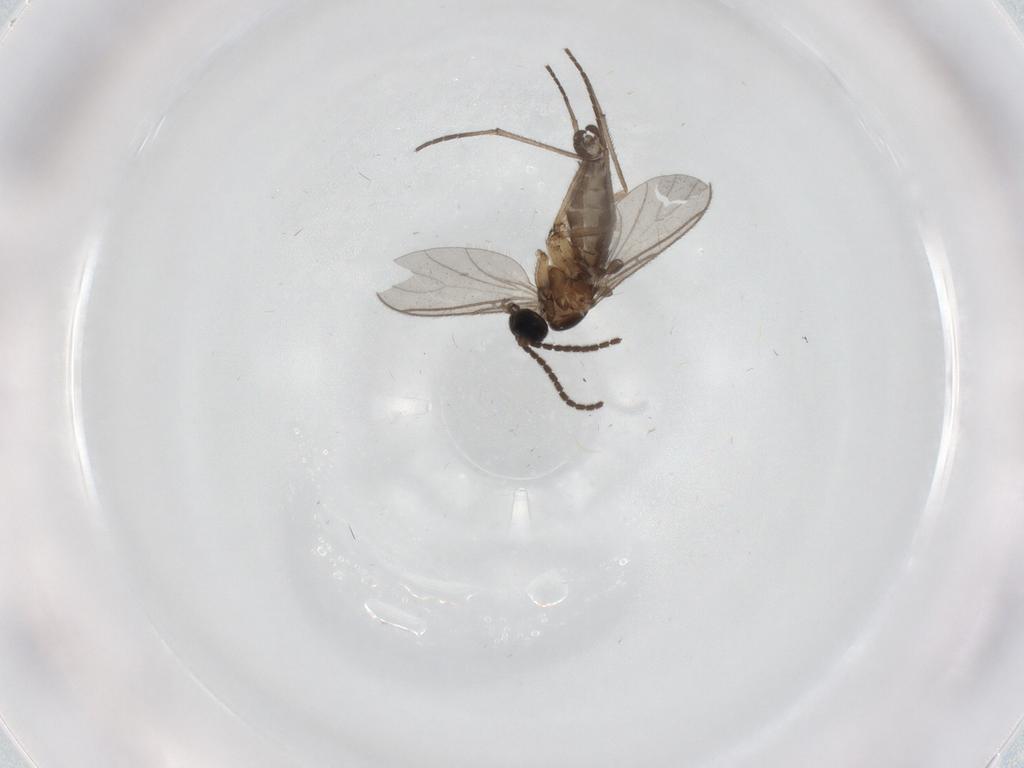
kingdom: Animalia
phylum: Arthropoda
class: Insecta
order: Diptera
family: Sciaridae
